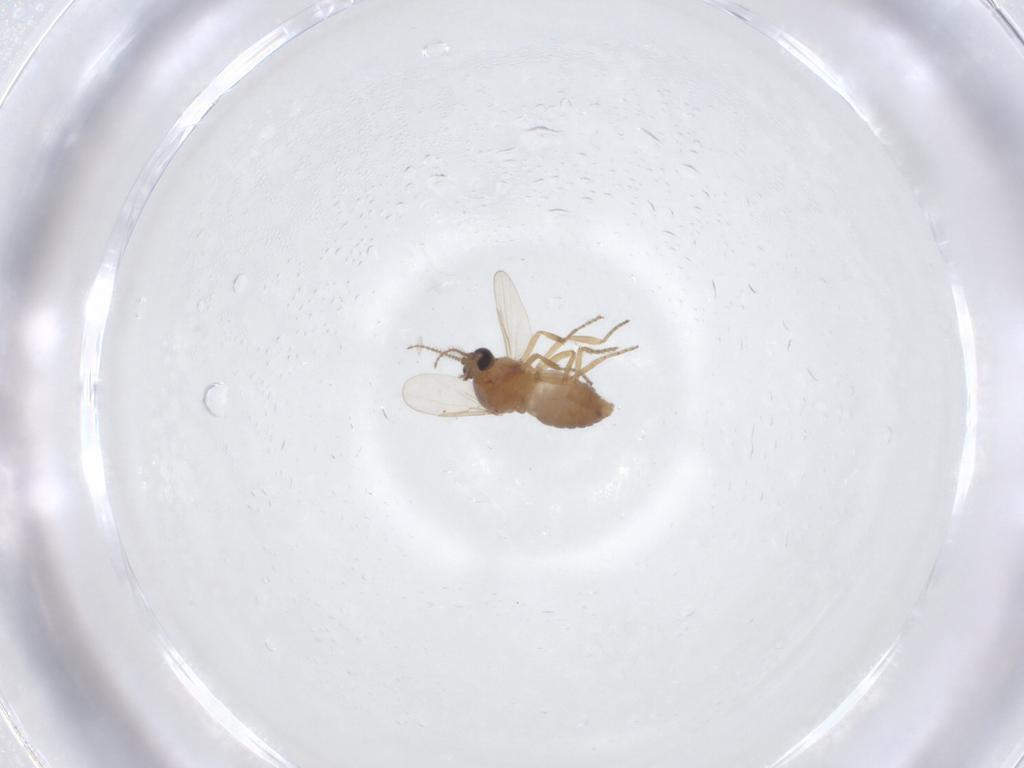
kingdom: Animalia
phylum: Arthropoda
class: Insecta
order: Diptera
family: Ceratopogonidae
